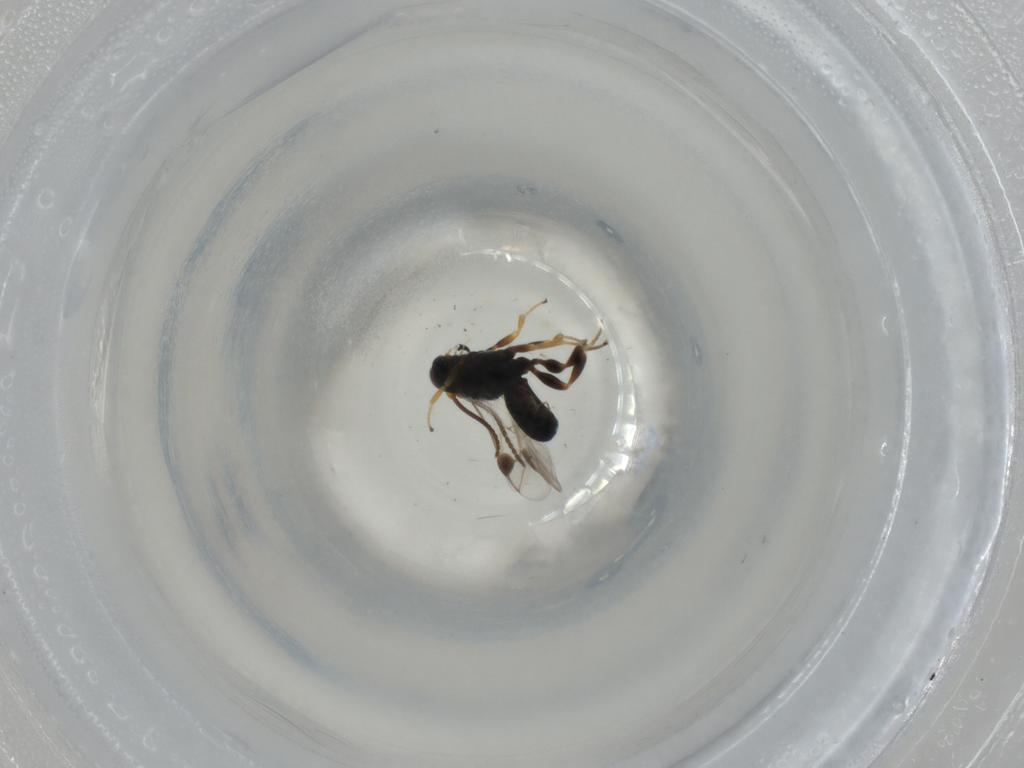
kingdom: Animalia
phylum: Arthropoda
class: Insecta
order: Hymenoptera
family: Braconidae
